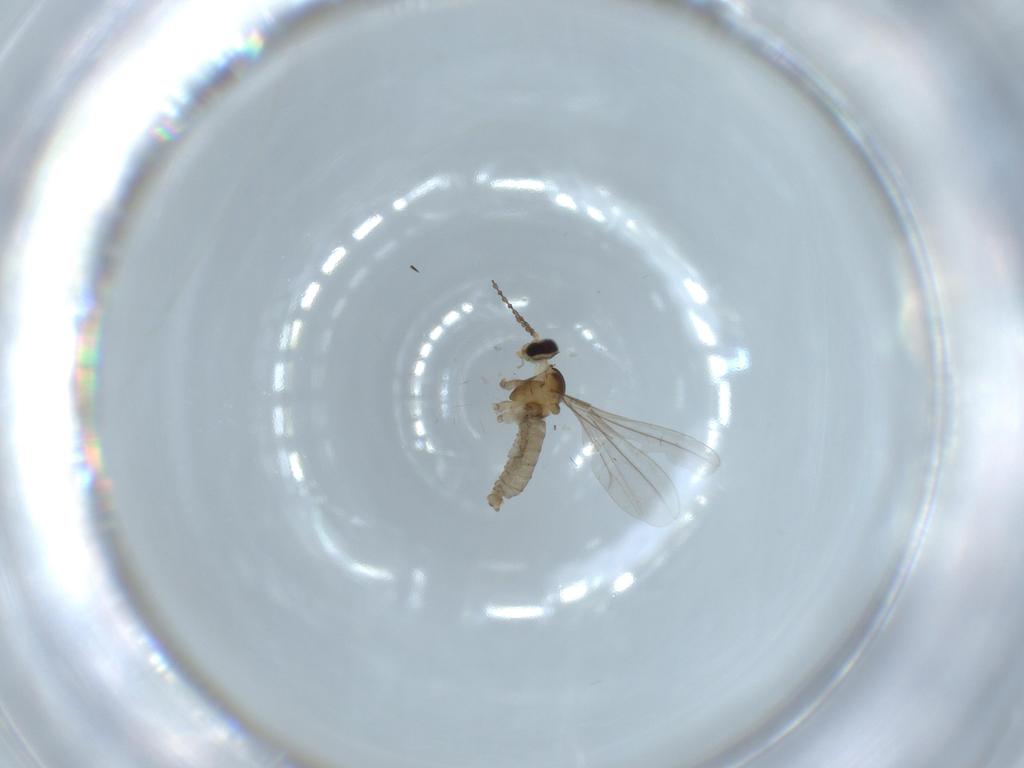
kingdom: Animalia
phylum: Arthropoda
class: Insecta
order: Diptera
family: Cecidomyiidae
